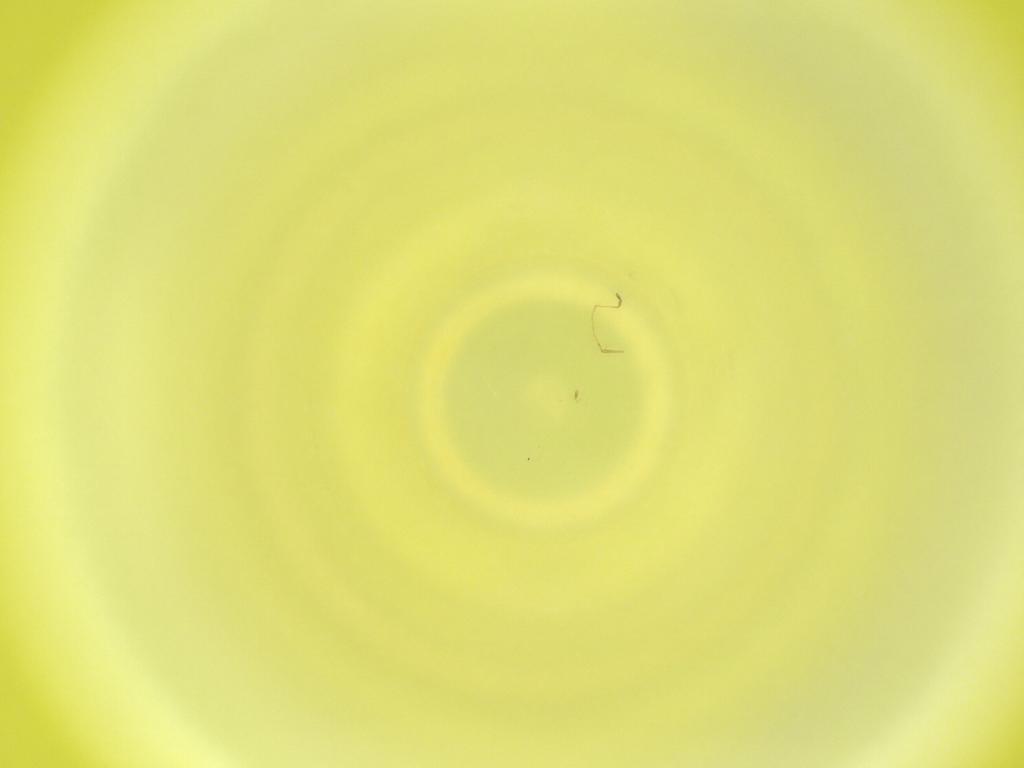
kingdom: Animalia
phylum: Arthropoda
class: Insecta
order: Diptera
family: Cecidomyiidae
